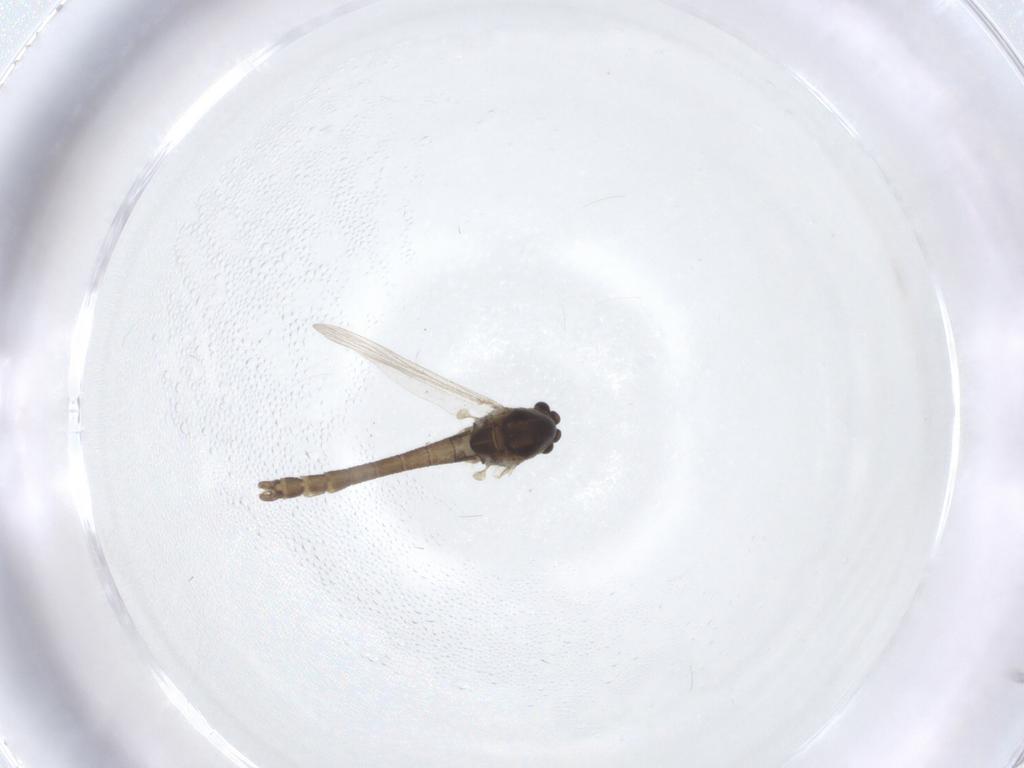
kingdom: Animalia
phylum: Arthropoda
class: Insecta
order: Diptera
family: Chironomidae
